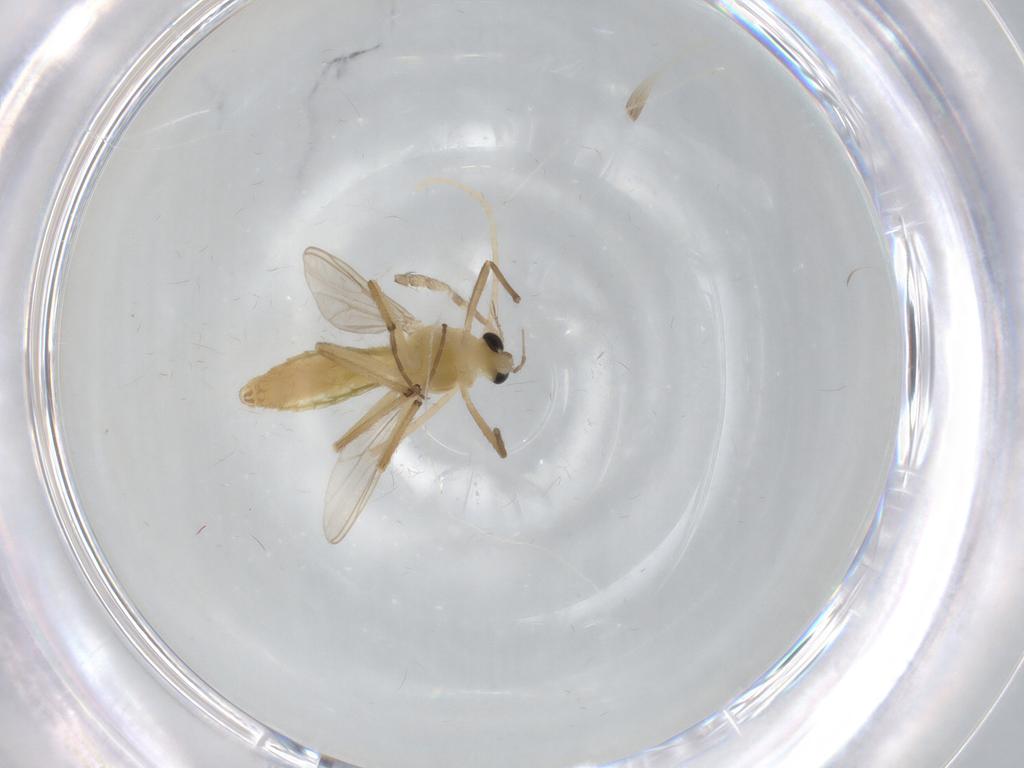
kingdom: Animalia
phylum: Arthropoda
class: Insecta
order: Diptera
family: Chironomidae
